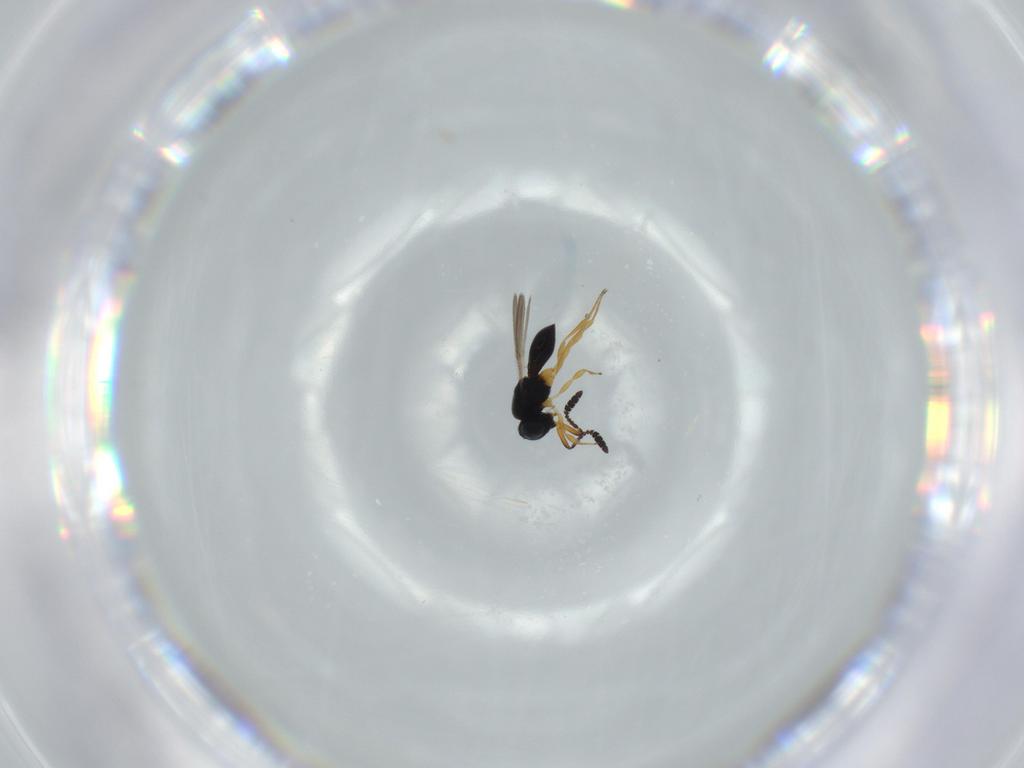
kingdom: Animalia
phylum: Arthropoda
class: Insecta
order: Hymenoptera
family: Scelionidae
